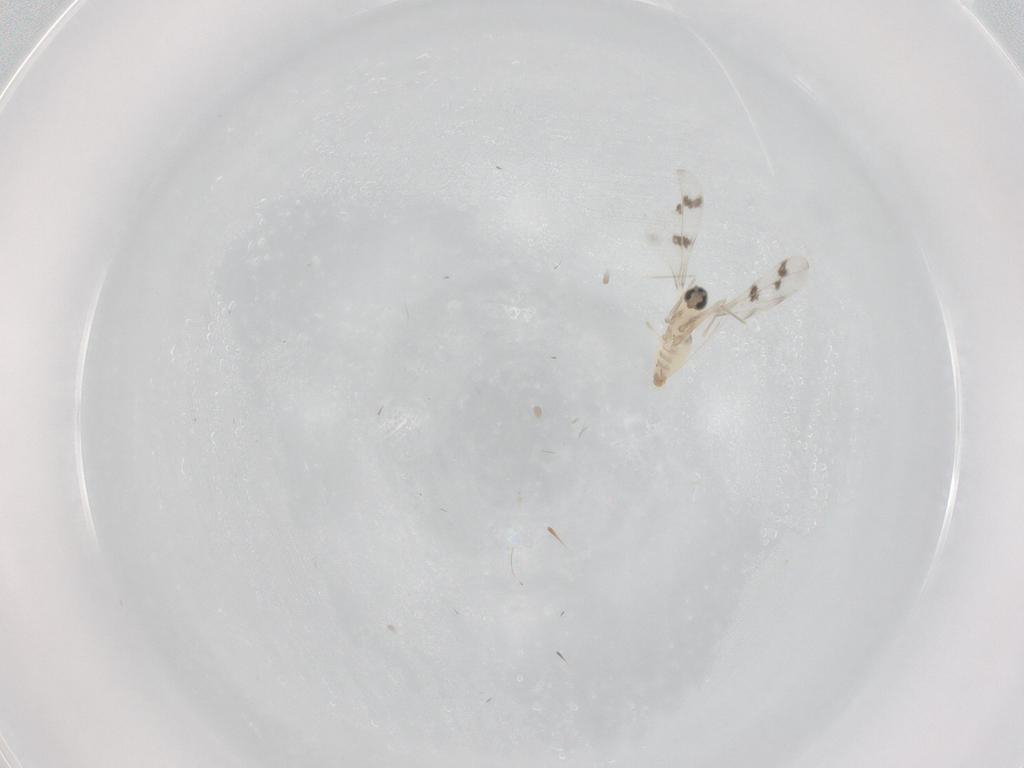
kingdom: Animalia
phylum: Arthropoda
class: Insecta
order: Diptera
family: Cecidomyiidae
